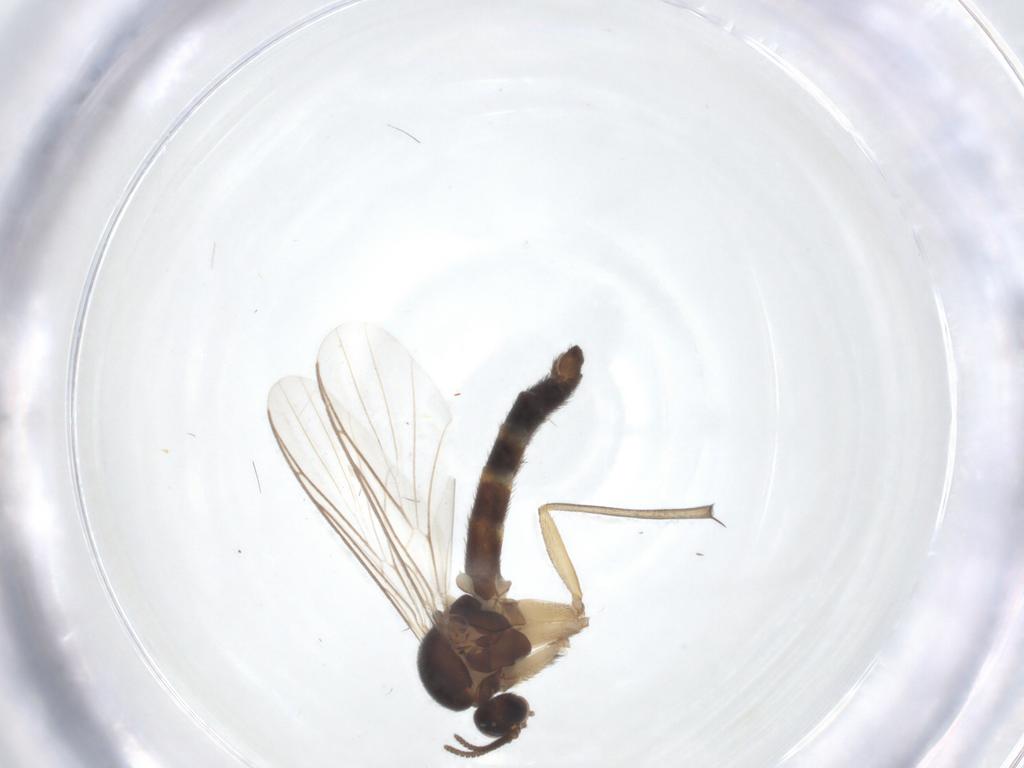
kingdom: Animalia
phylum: Arthropoda
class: Insecta
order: Diptera
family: Keroplatidae
